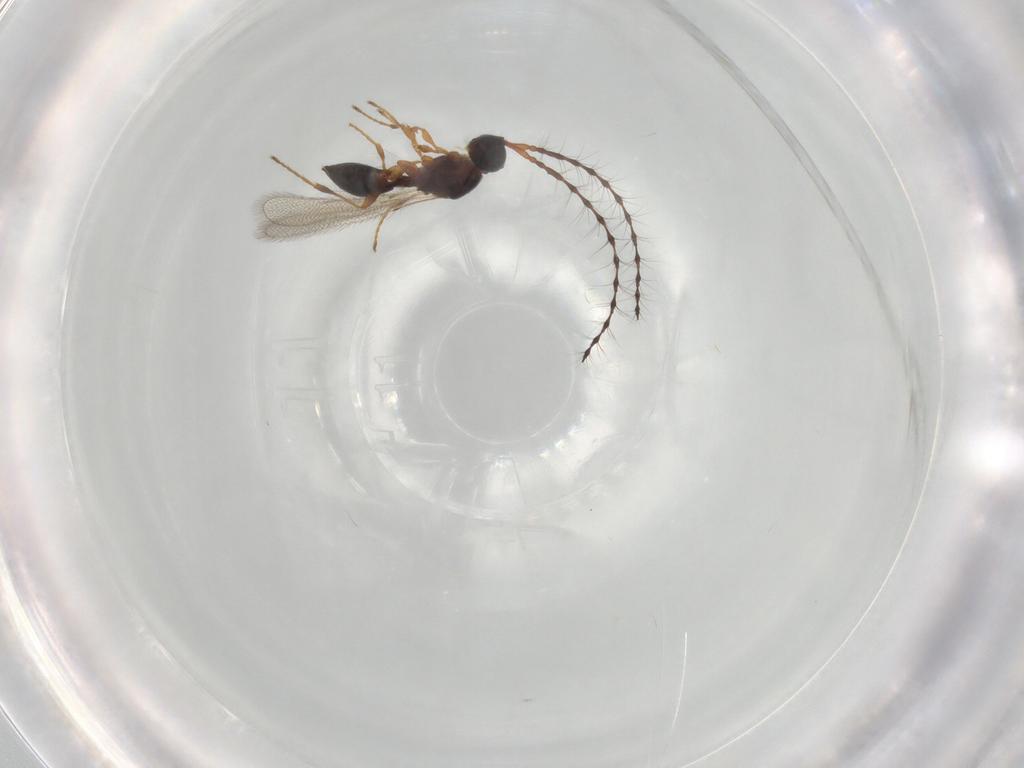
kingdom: Animalia
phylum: Arthropoda
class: Insecta
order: Hymenoptera
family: Diapriidae
